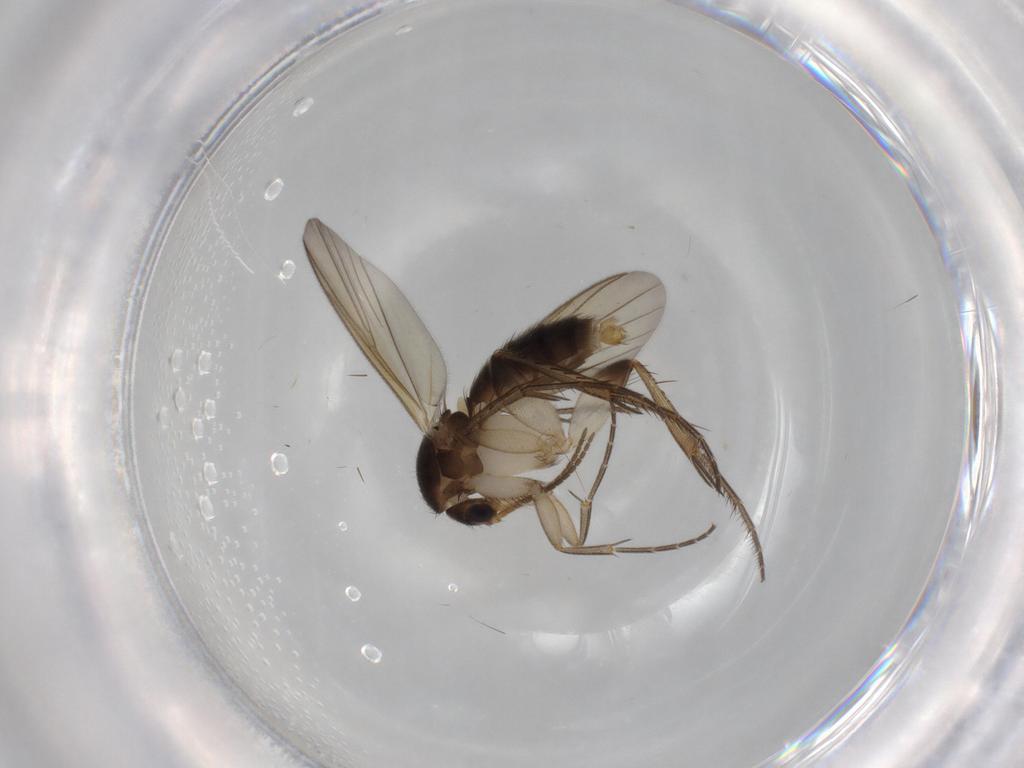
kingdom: Animalia
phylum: Arthropoda
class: Insecta
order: Diptera
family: Mycetophilidae
